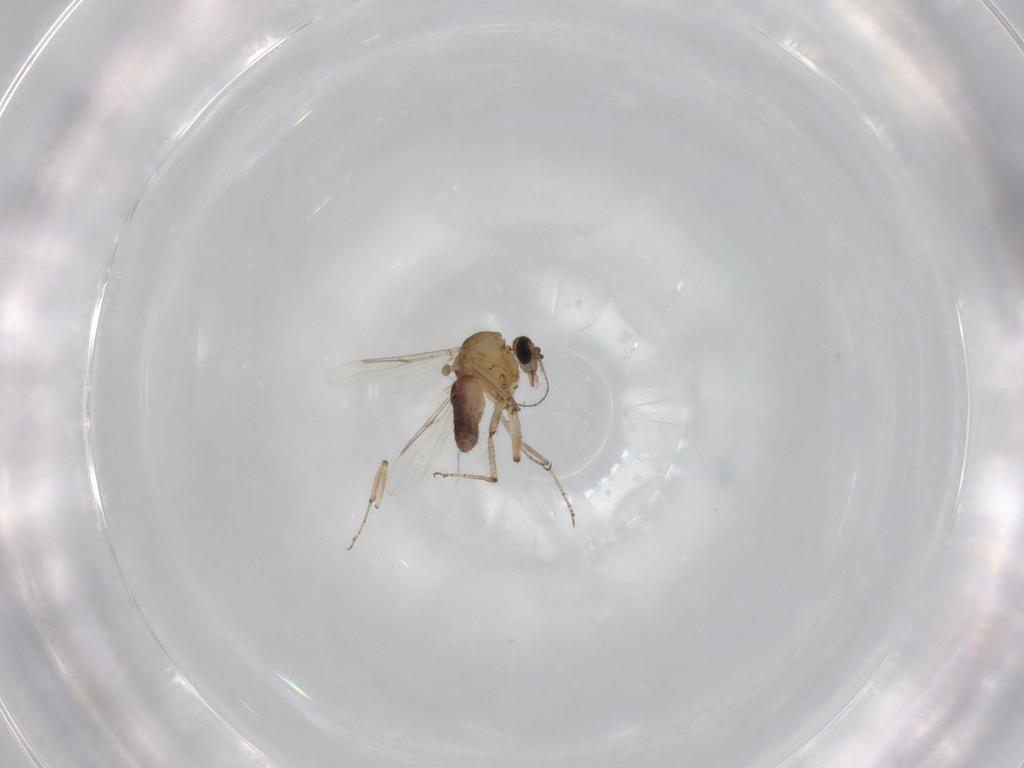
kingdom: Animalia
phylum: Arthropoda
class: Insecta
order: Diptera
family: Ceratopogonidae
